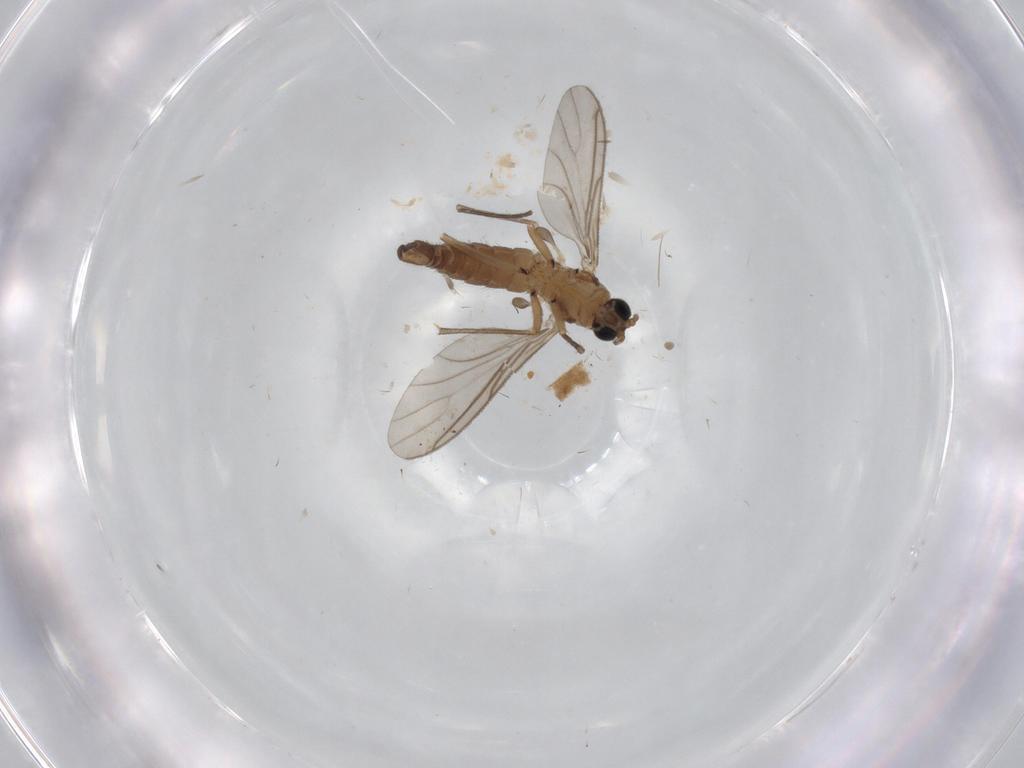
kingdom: Animalia
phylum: Arthropoda
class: Insecta
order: Diptera
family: Sciaridae
